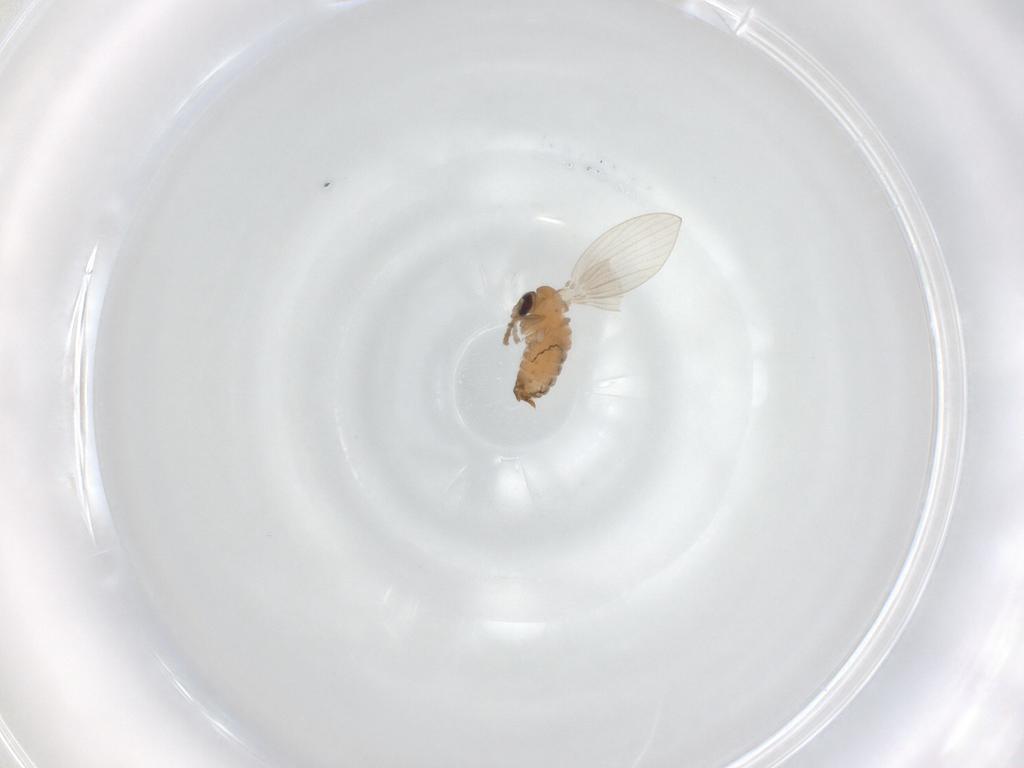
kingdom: Animalia
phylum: Arthropoda
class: Insecta
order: Diptera
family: Psychodidae
